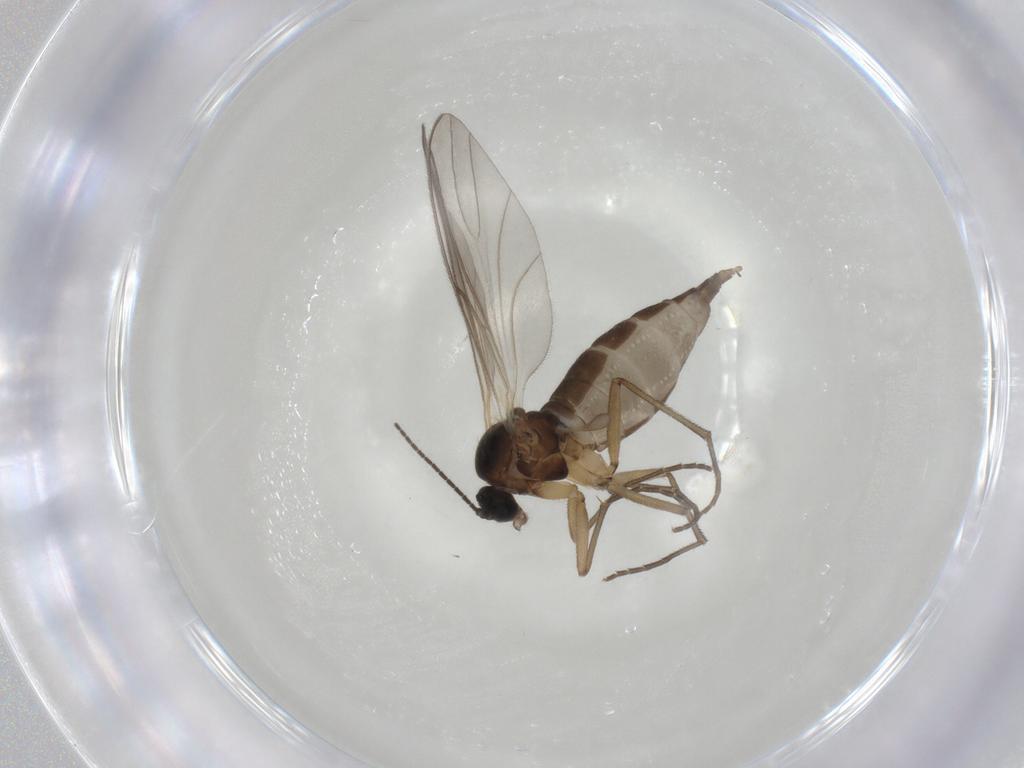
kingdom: Animalia
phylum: Arthropoda
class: Insecta
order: Diptera
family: Sciaridae
